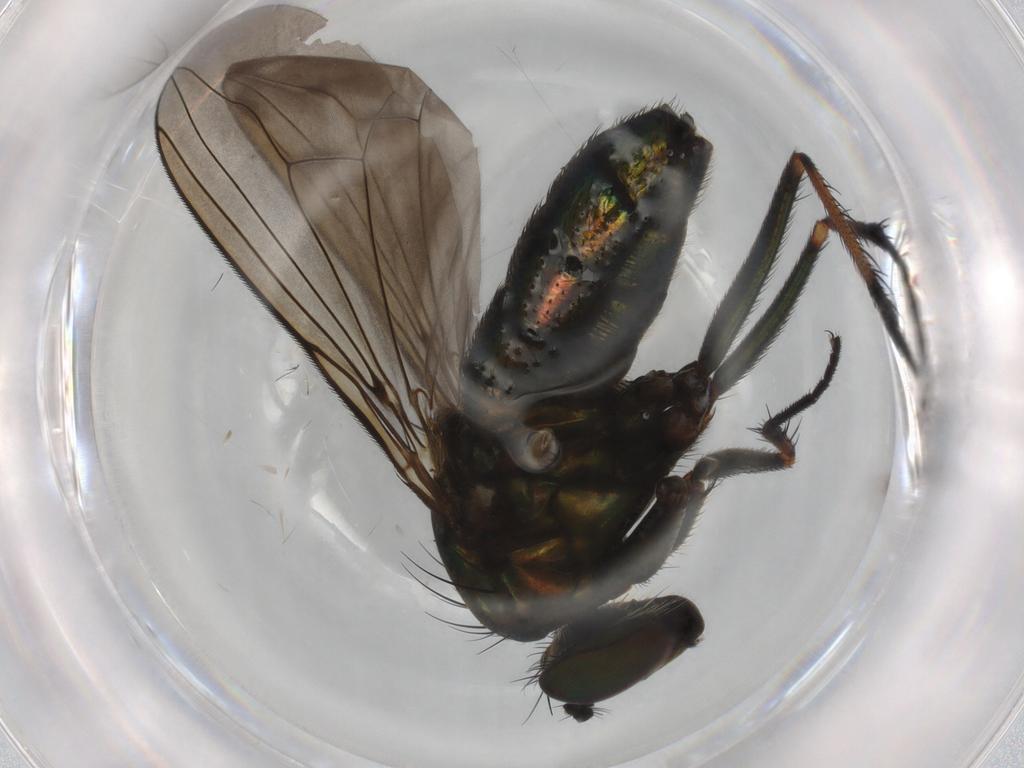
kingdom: Animalia
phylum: Arthropoda
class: Insecta
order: Diptera
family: Dolichopodidae
